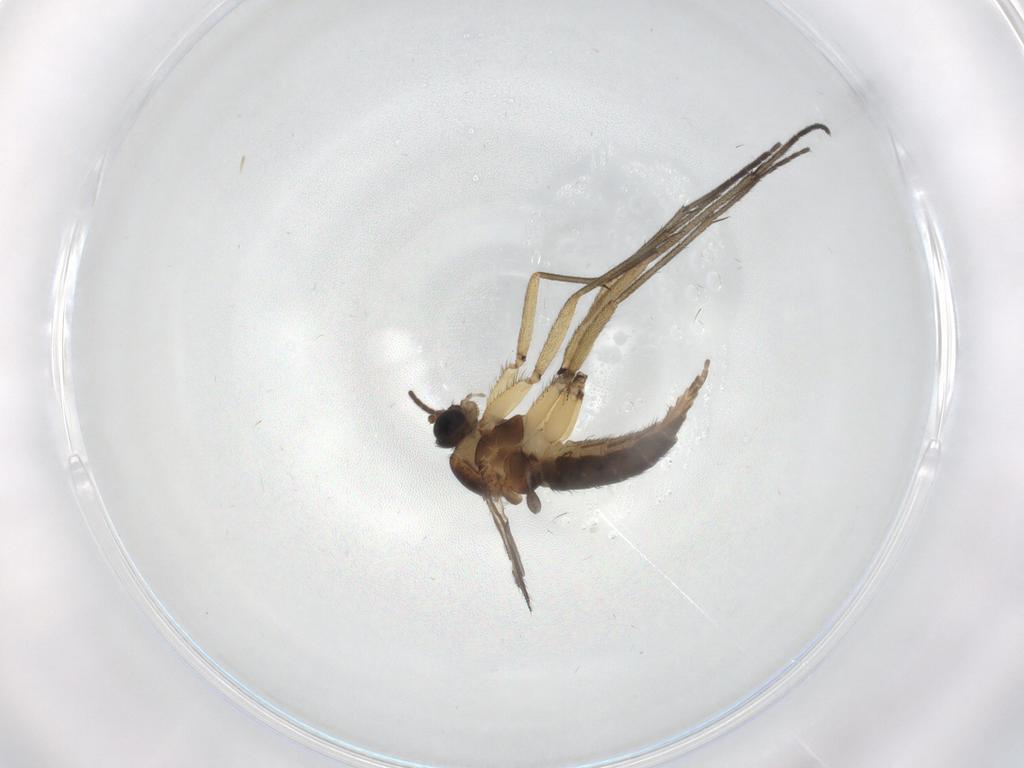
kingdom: Animalia
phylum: Arthropoda
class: Insecta
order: Diptera
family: Sciaridae
